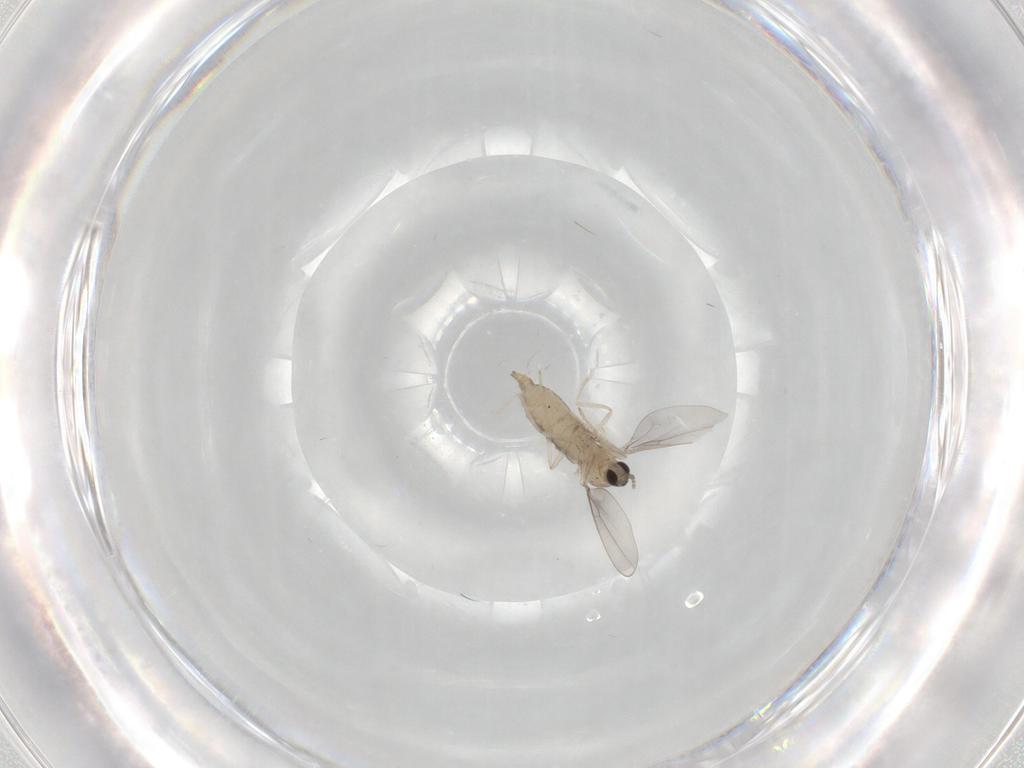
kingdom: Animalia
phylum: Arthropoda
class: Insecta
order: Diptera
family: Cecidomyiidae
